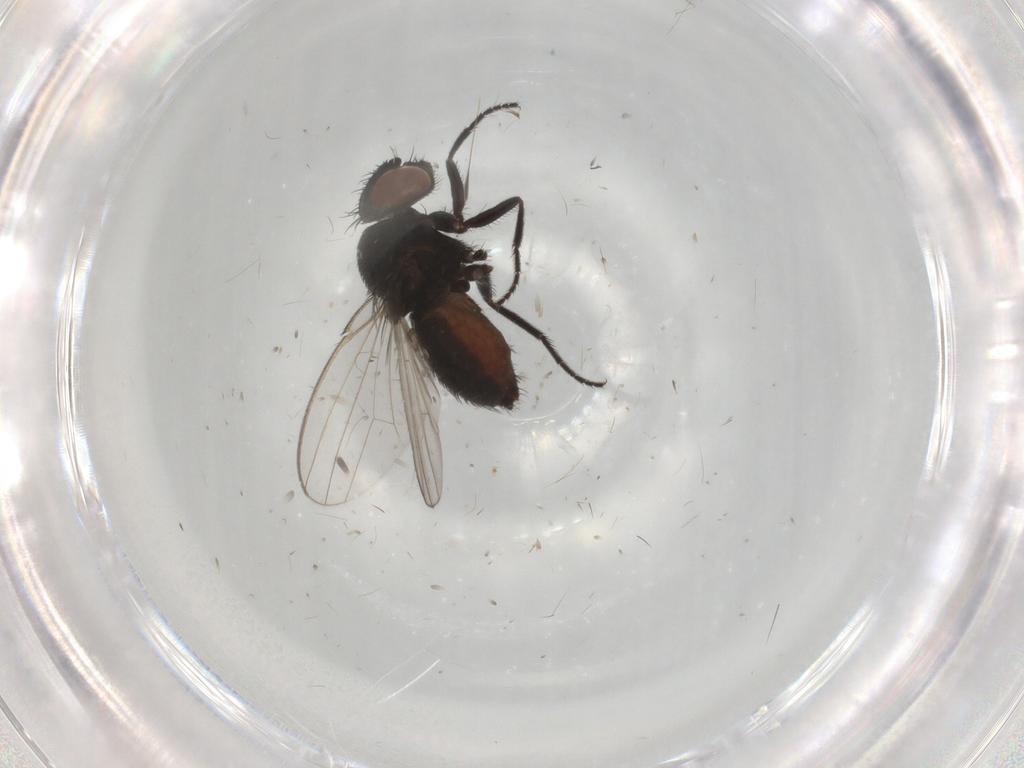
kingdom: Animalia
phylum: Arthropoda
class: Insecta
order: Diptera
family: Milichiidae
